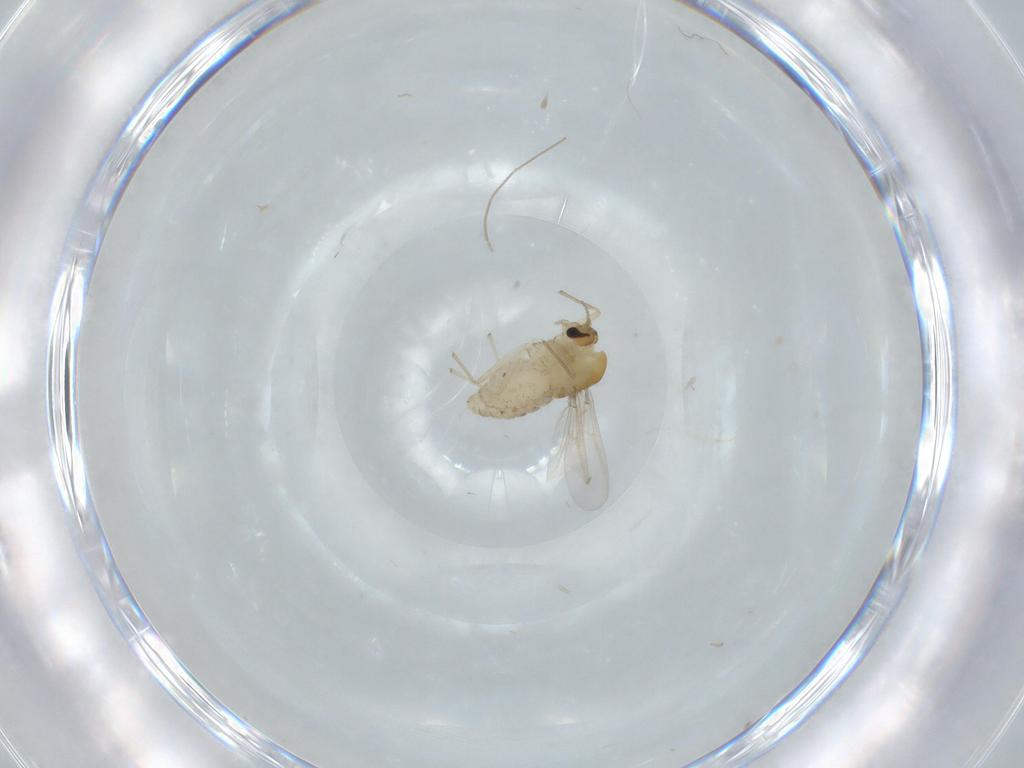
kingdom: Animalia
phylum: Arthropoda
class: Insecta
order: Diptera
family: Chironomidae
